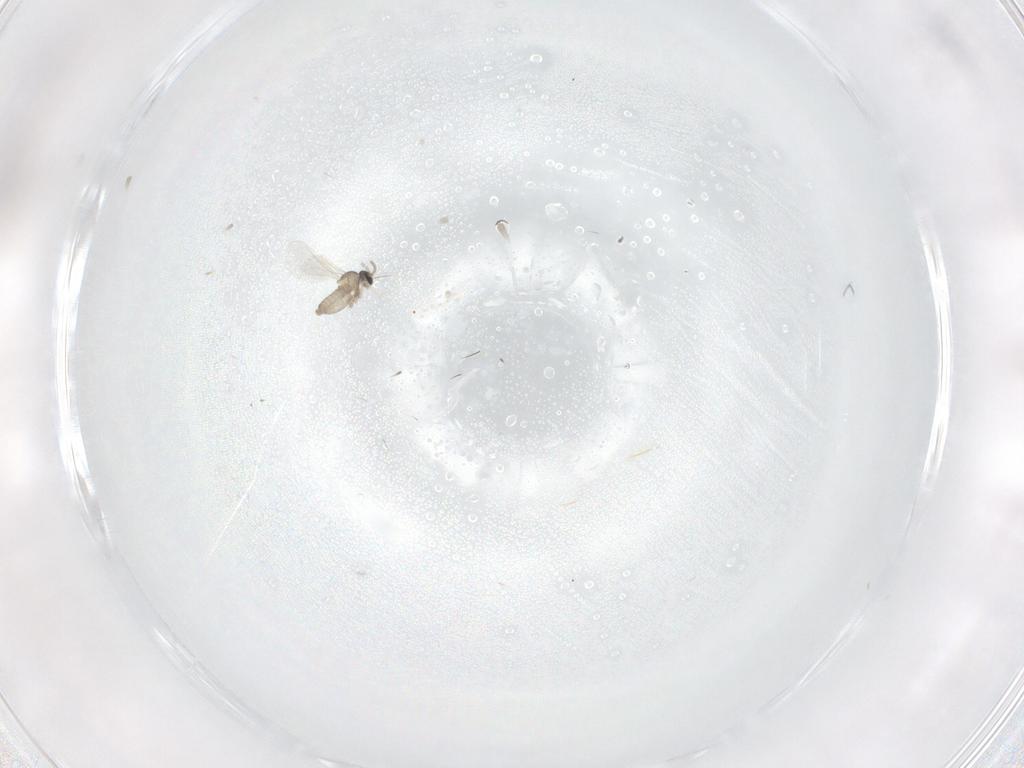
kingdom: Animalia
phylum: Arthropoda
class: Insecta
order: Diptera
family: Cecidomyiidae
